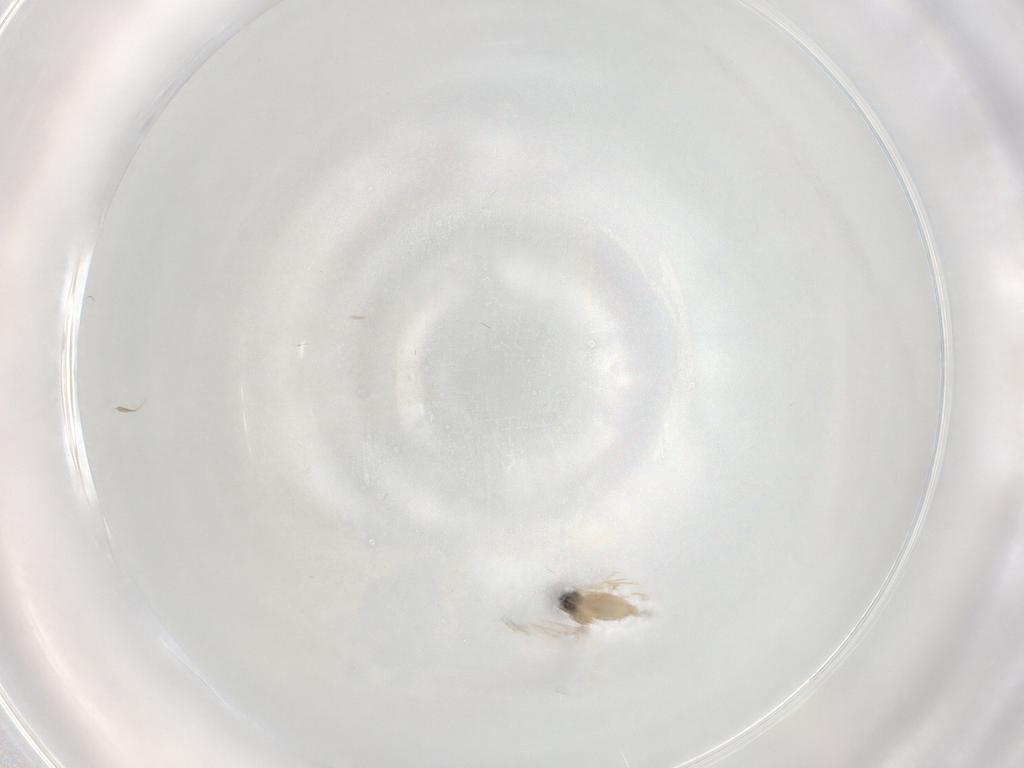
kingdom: Animalia
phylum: Arthropoda
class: Insecta
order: Diptera
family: Cecidomyiidae
